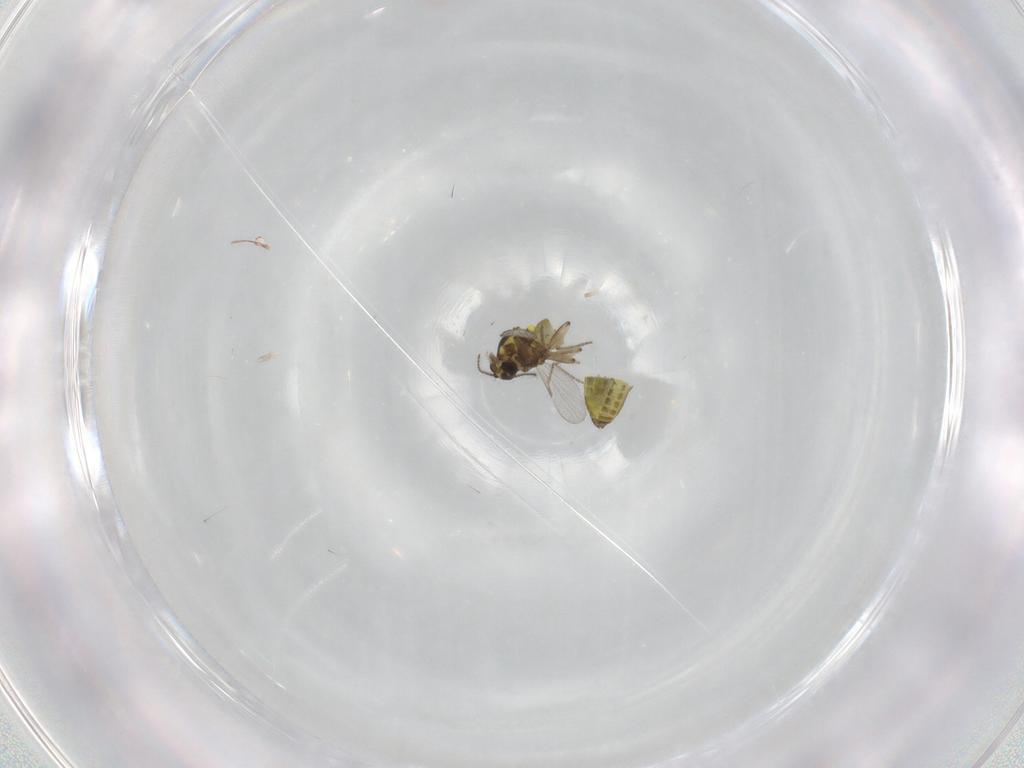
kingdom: Animalia
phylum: Arthropoda
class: Insecta
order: Diptera
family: Ceratopogonidae
